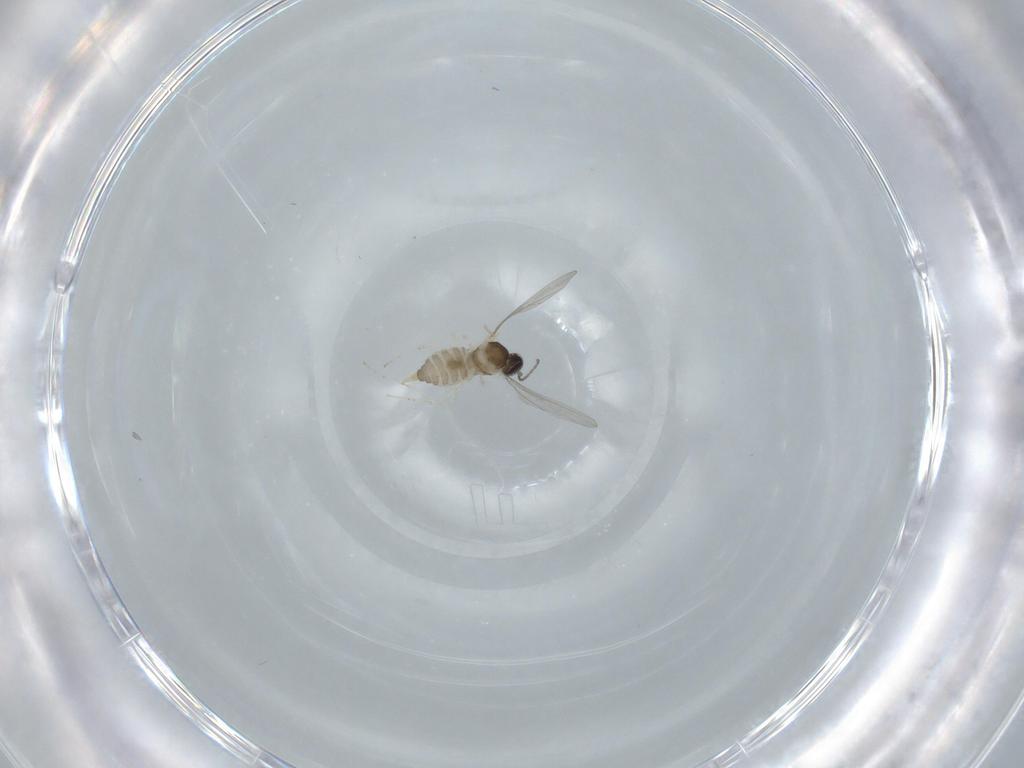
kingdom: Animalia
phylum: Arthropoda
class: Insecta
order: Diptera
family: Cecidomyiidae
